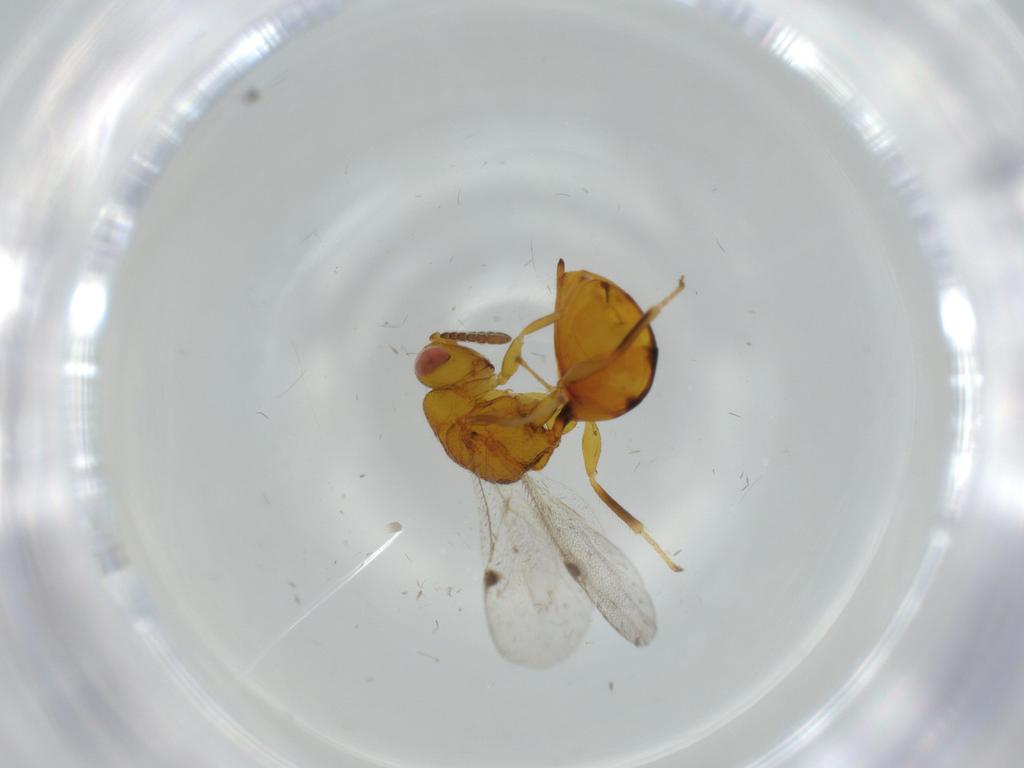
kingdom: Animalia
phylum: Arthropoda
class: Insecta
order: Hymenoptera
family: Eurytomidae
